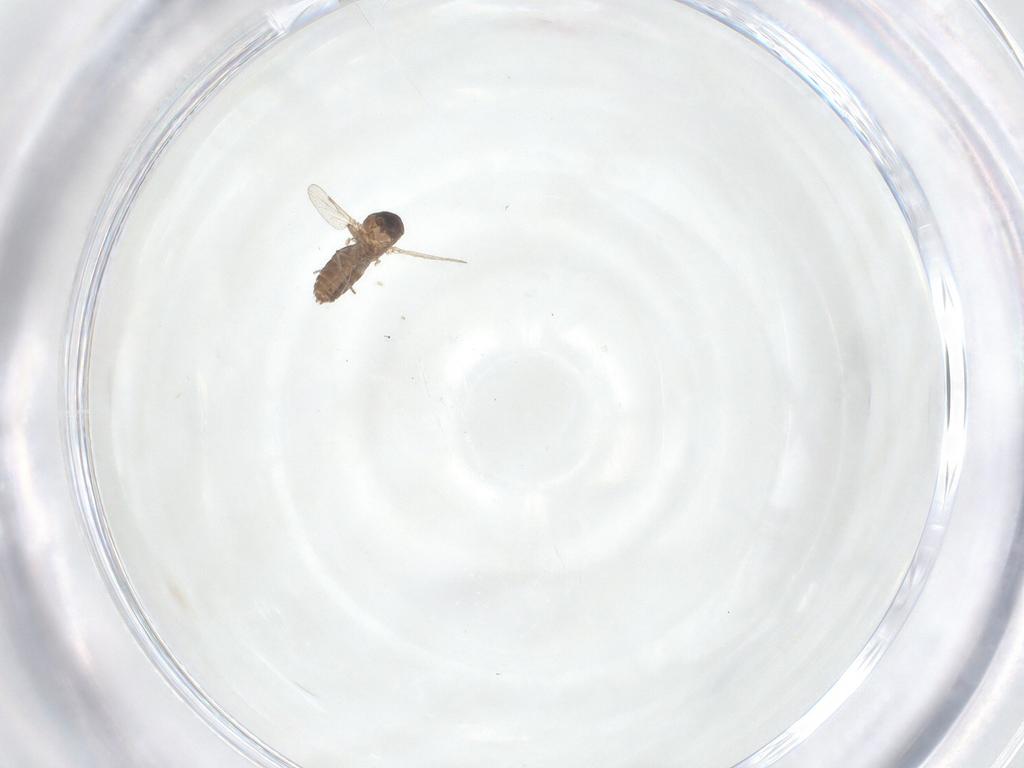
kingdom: Animalia
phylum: Arthropoda
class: Insecta
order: Diptera
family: Ceratopogonidae
